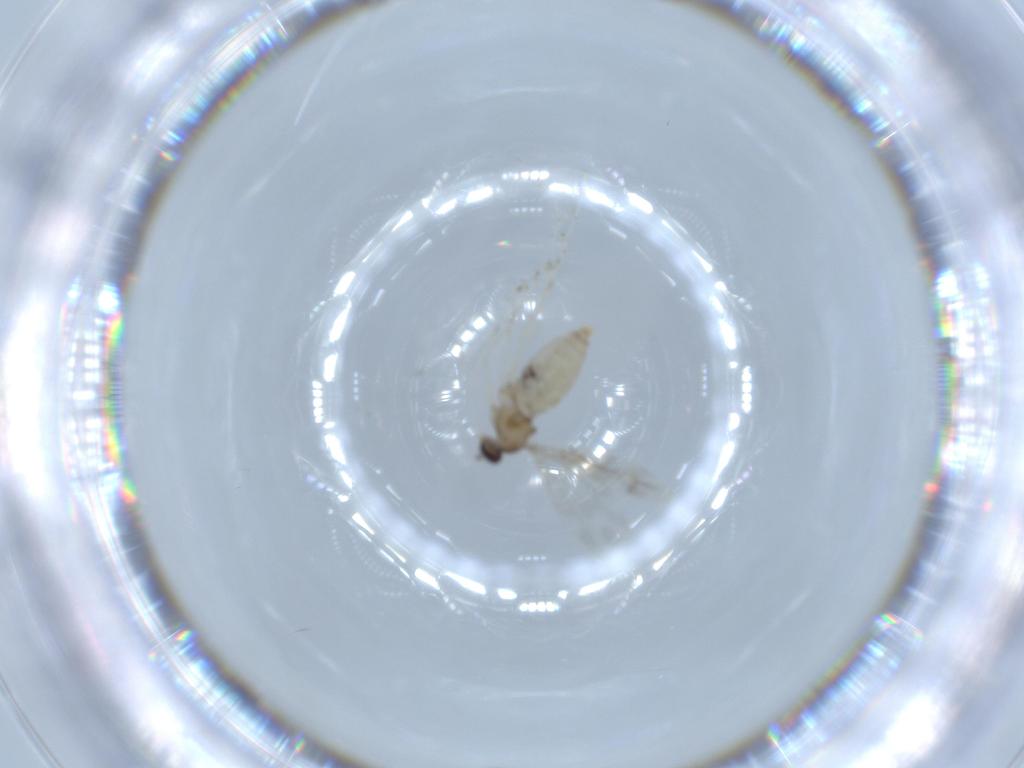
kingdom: Animalia
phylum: Arthropoda
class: Insecta
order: Diptera
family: Cecidomyiidae
